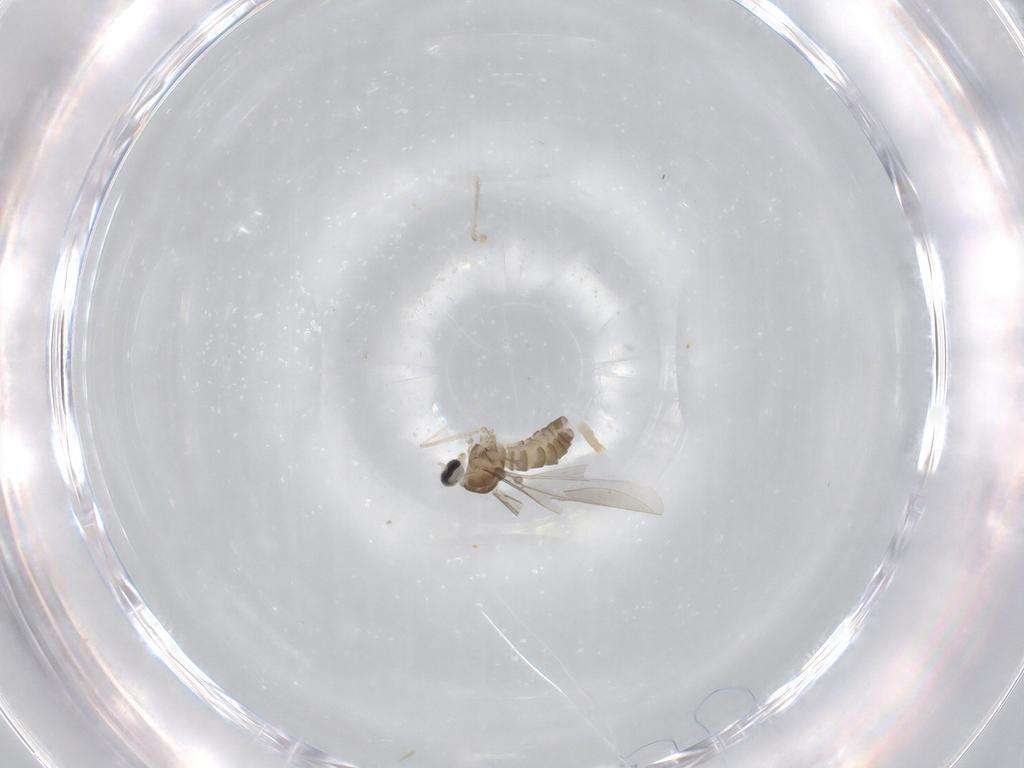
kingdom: Animalia
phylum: Arthropoda
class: Insecta
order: Diptera
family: Cecidomyiidae
